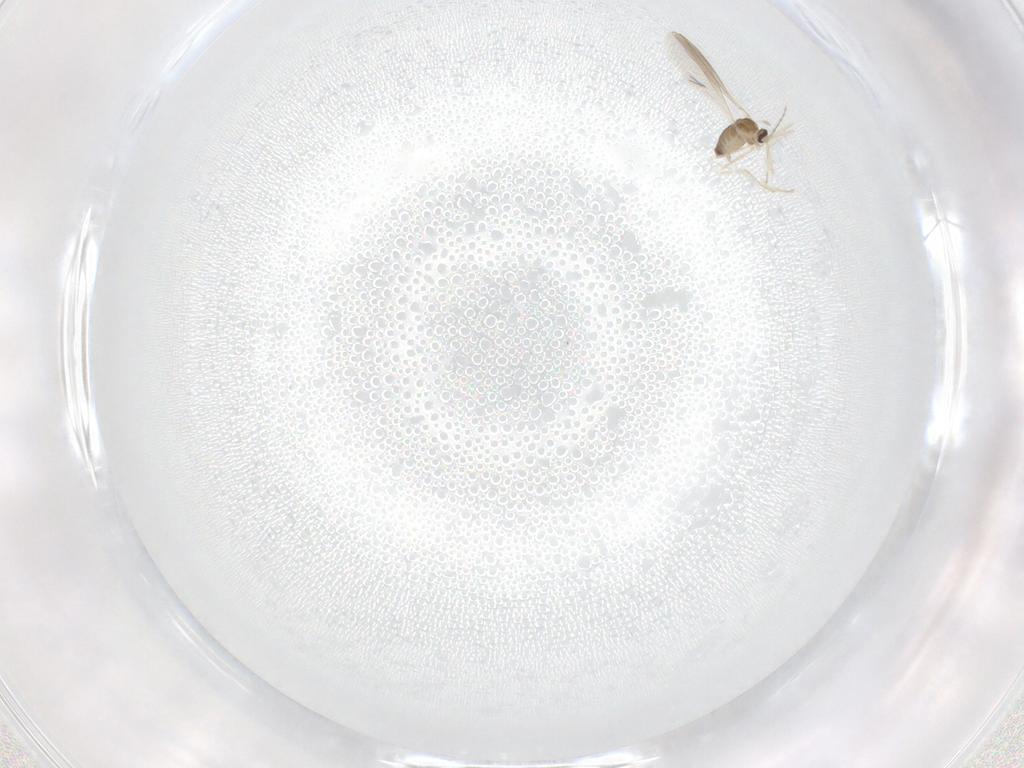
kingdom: Animalia
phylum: Arthropoda
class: Insecta
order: Diptera
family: Cecidomyiidae
